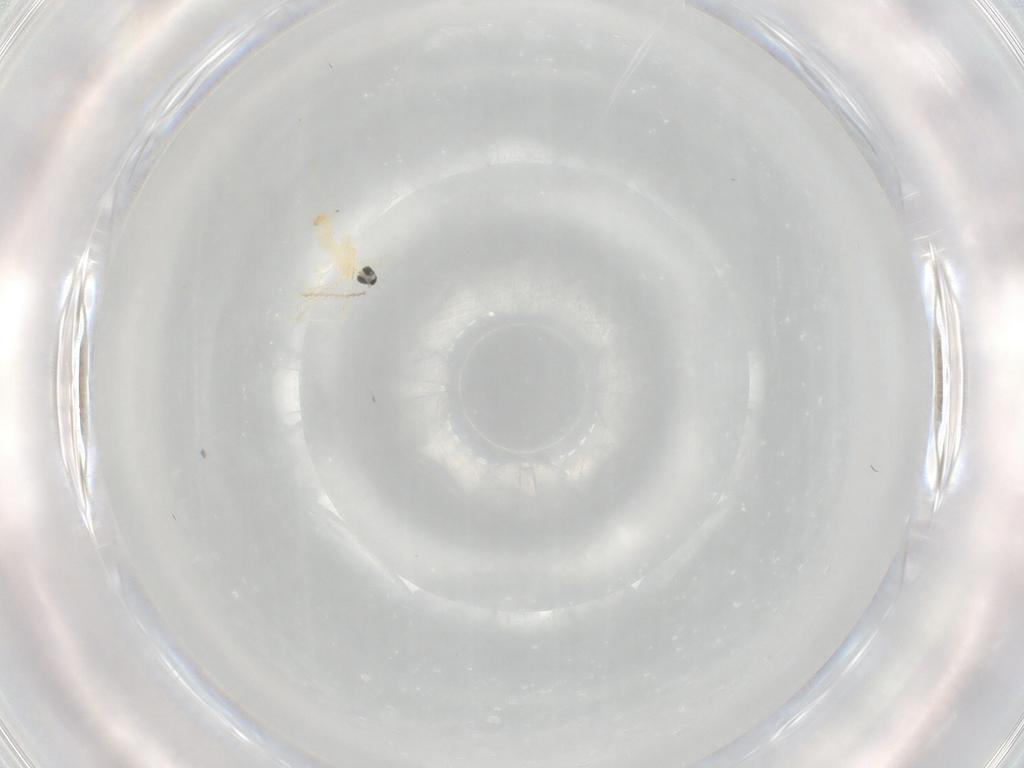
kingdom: Animalia
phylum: Arthropoda
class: Insecta
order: Diptera
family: Cecidomyiidae
